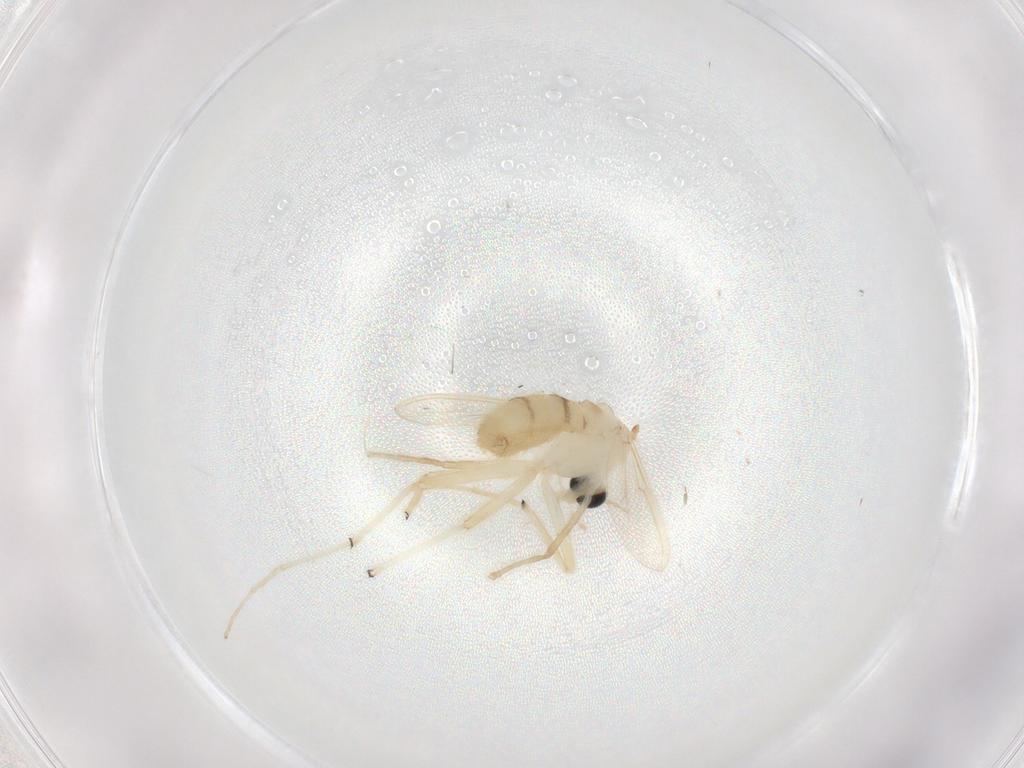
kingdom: Animalia
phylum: Arthropoda
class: Insecta
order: Diptera
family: Chironomidae
